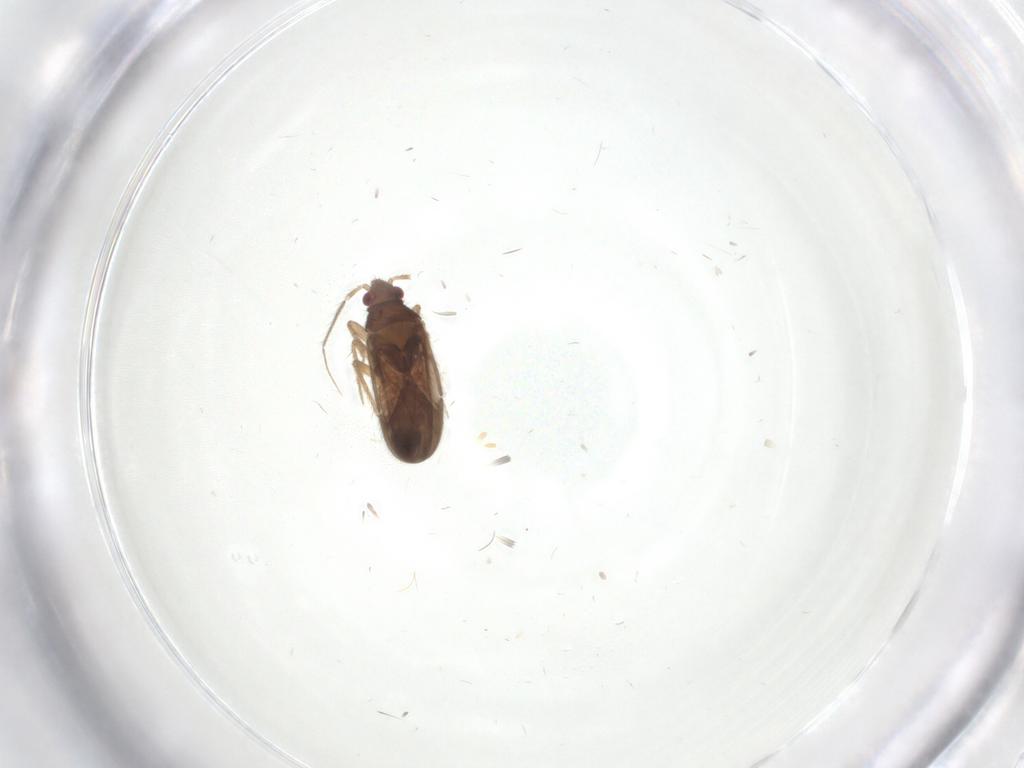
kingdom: Animalia
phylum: Arthropoda
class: Insecta
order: Hemiptera
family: Ceratocombidae
